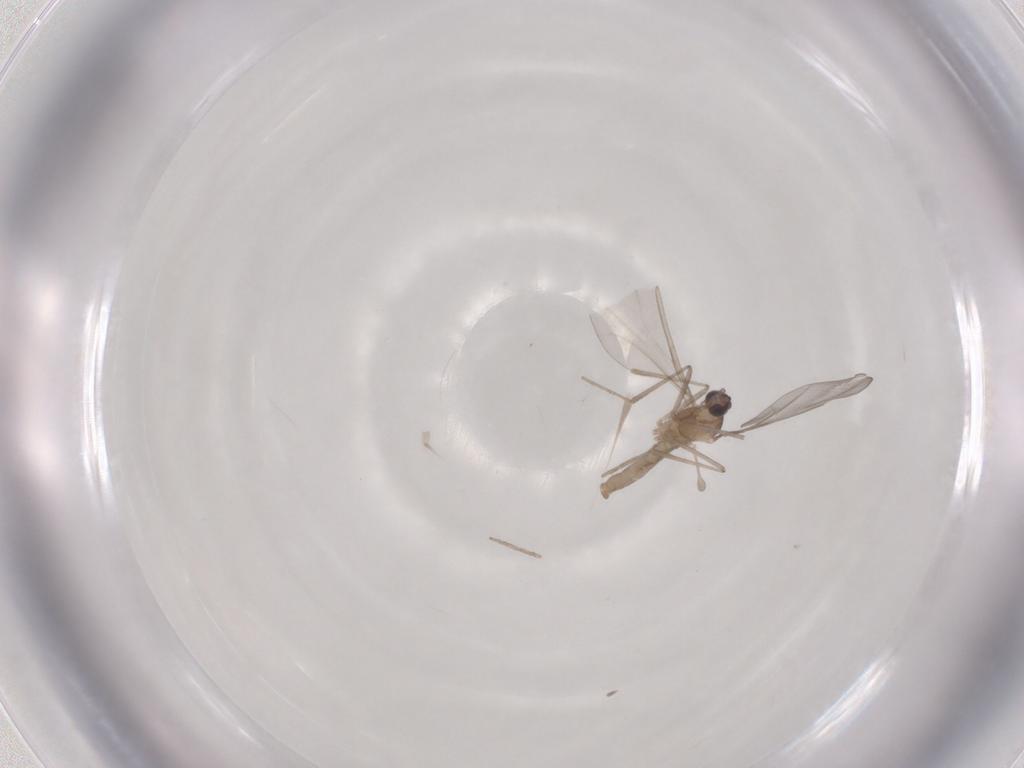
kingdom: Animalia
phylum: Arthropoda
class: Insecta
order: Diptera
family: Cecidomyiidae
